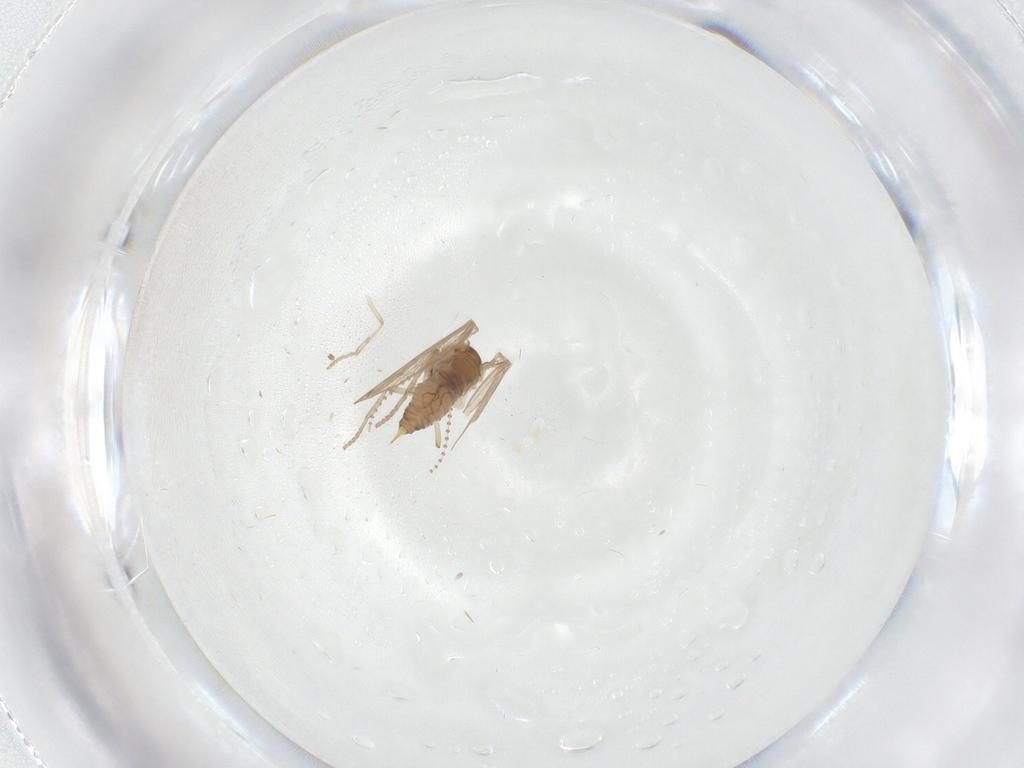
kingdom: Animalia
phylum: Arthropoda
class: Insecta
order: Diptera
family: Psychodidae
